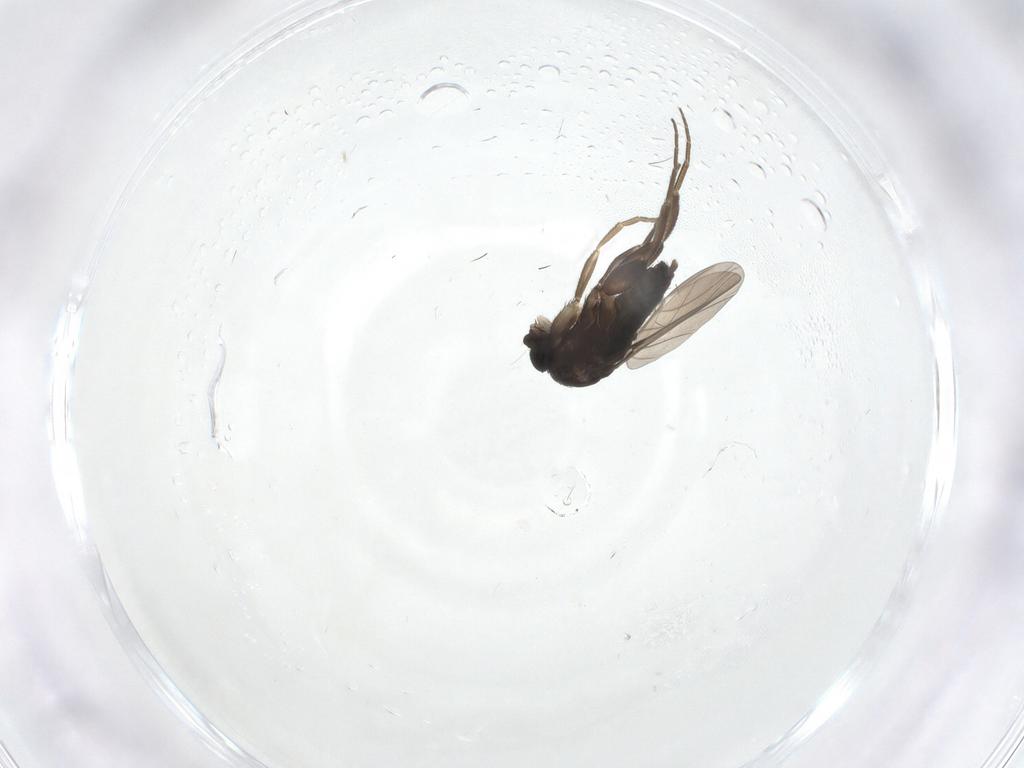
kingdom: Animalia
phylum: Arthropoda
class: Insecta
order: Diptera
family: Phoridae
